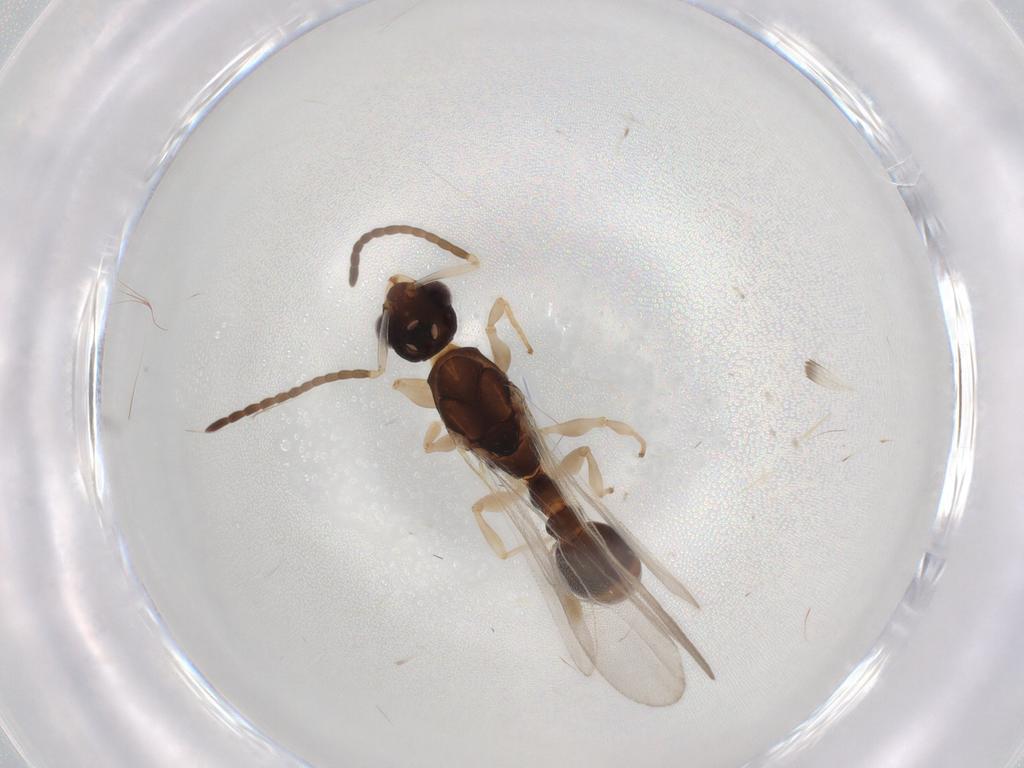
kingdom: Animalia
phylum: Arthropoda
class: Insecta
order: Hymenoptera
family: Formicidae
